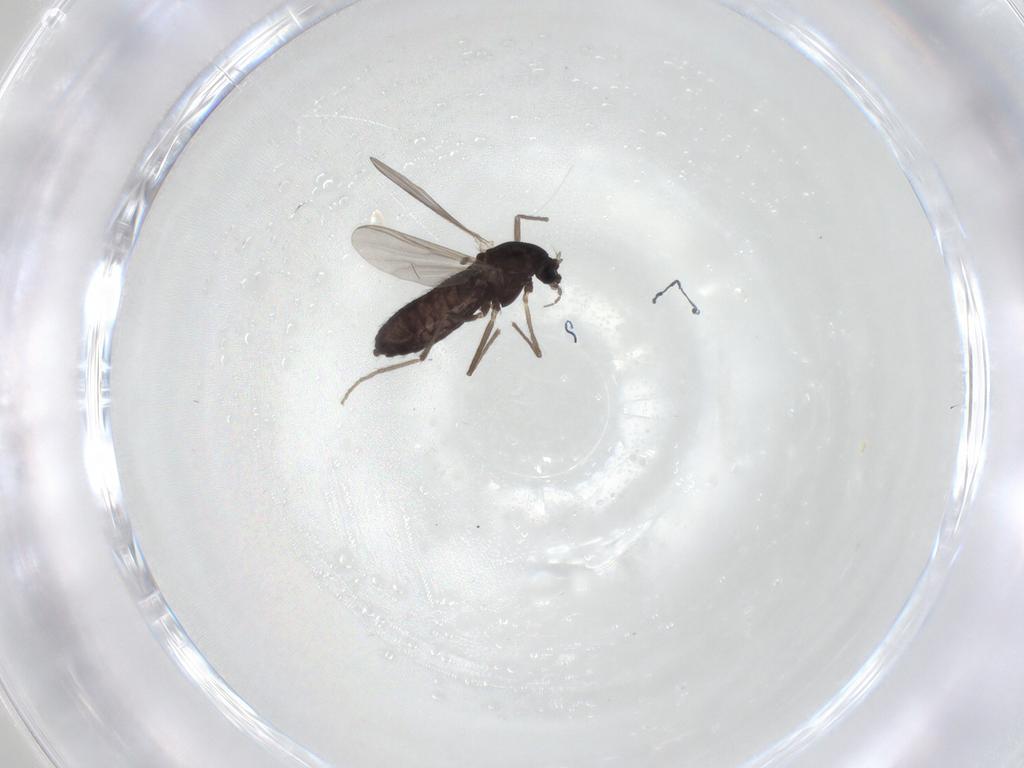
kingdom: Animalia
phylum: Arthropoda
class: Insecta
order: Diptera
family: Chironomidae
